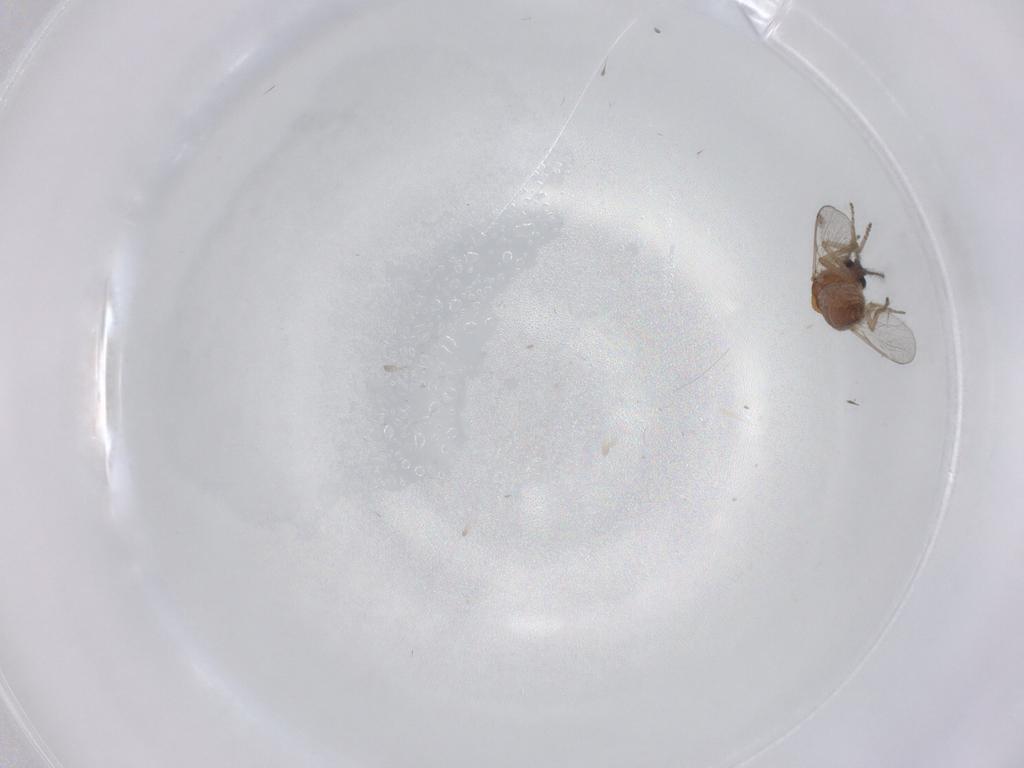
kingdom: Animalia
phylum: Arthropoda
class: Insecta
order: Diptera
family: Ceratopogonidae
